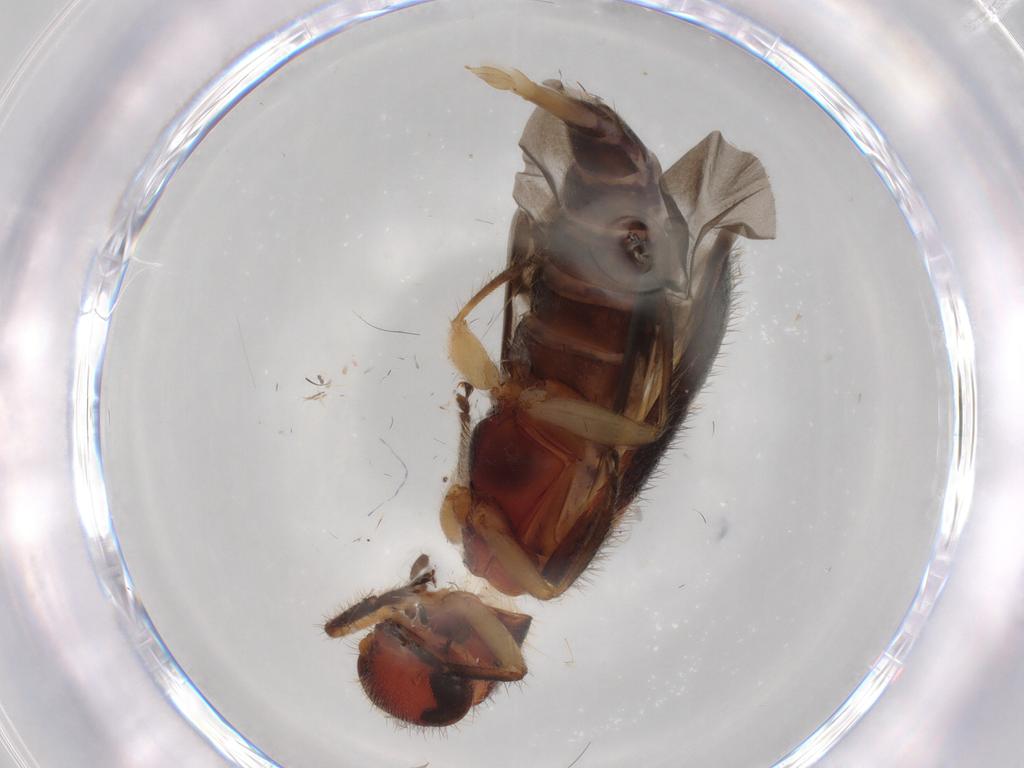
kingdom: Animalia
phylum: Arthropoda
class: Insecta
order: Coleoptera
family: Cleridae
